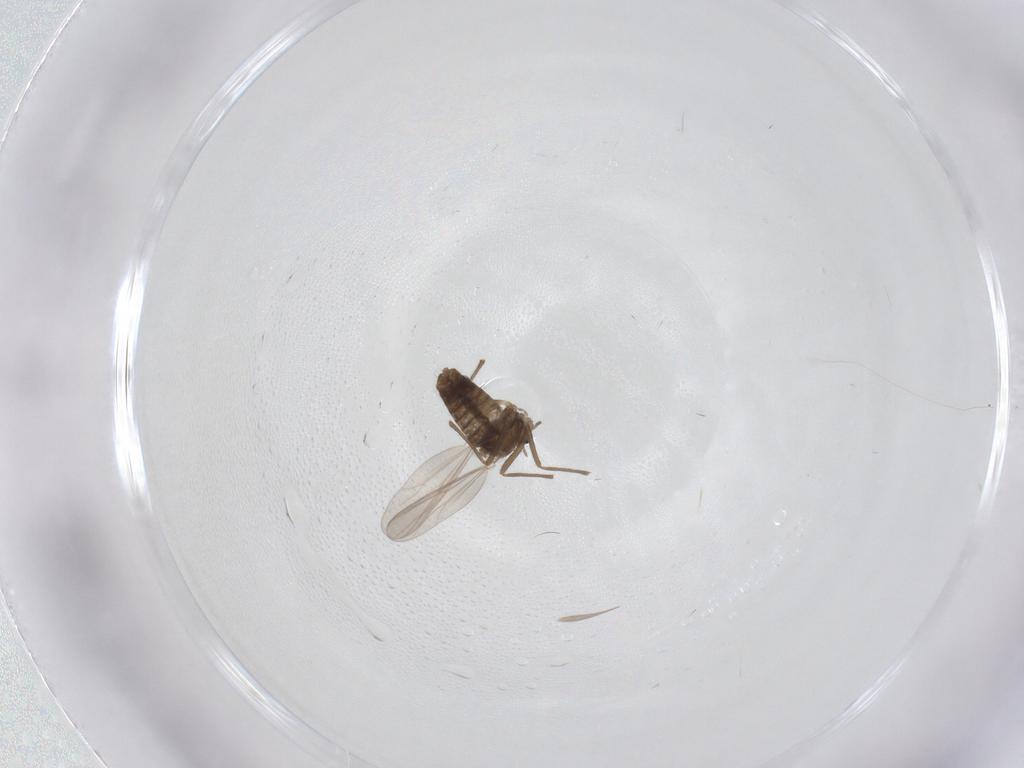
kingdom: Animalia
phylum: Arthropoda
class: Insecta
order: Diptera
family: Chironomidae
